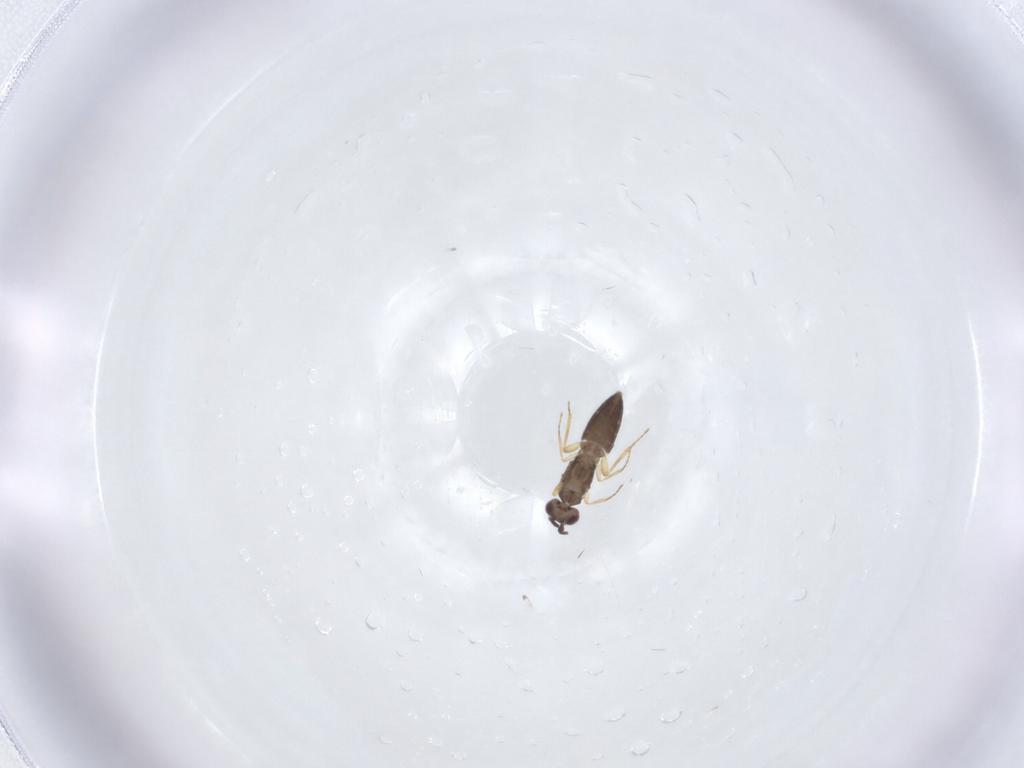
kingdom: Animalia
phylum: Arthropoda
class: Insecta
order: Hymenoptera
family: Mymaridae
